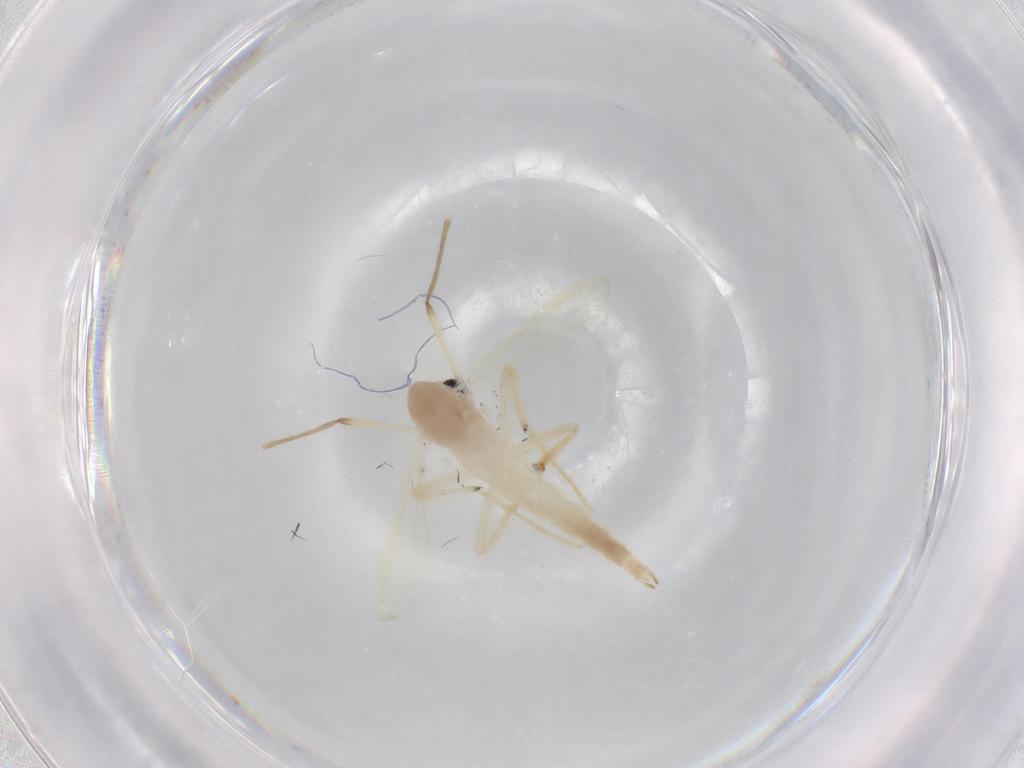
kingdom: Animalia
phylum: Arthropoda
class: Insecta
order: Diptera
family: Chironomidae
